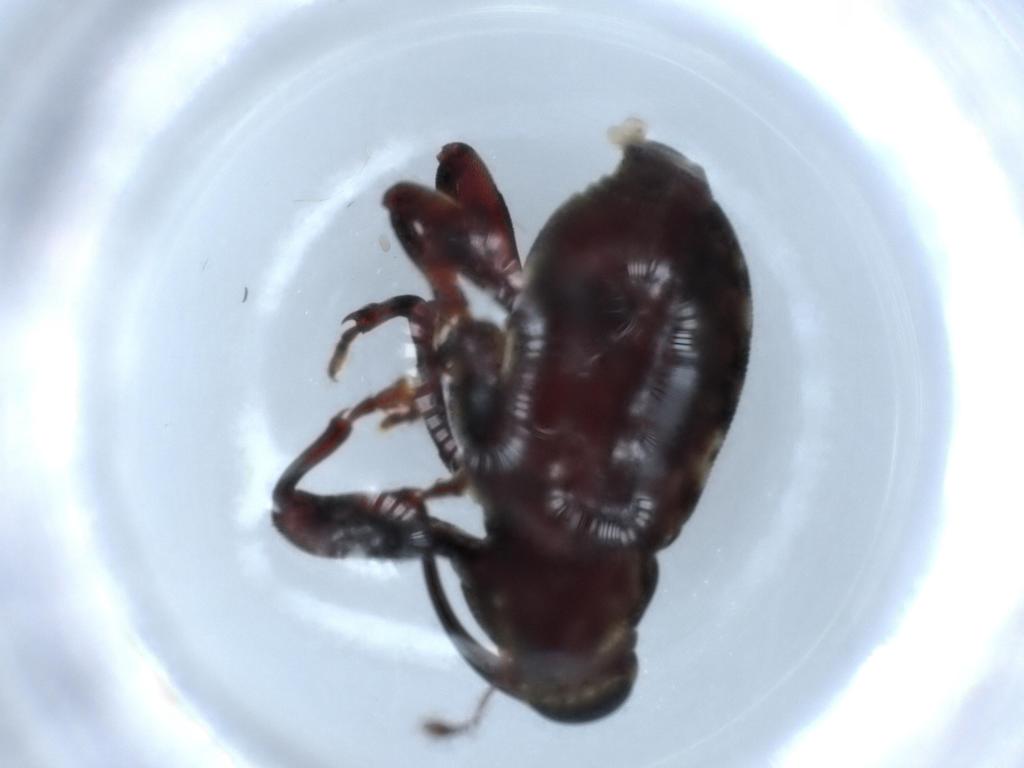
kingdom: Animalia
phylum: Arthropoda
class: Insecta
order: Coleoptera
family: Curculionidae
